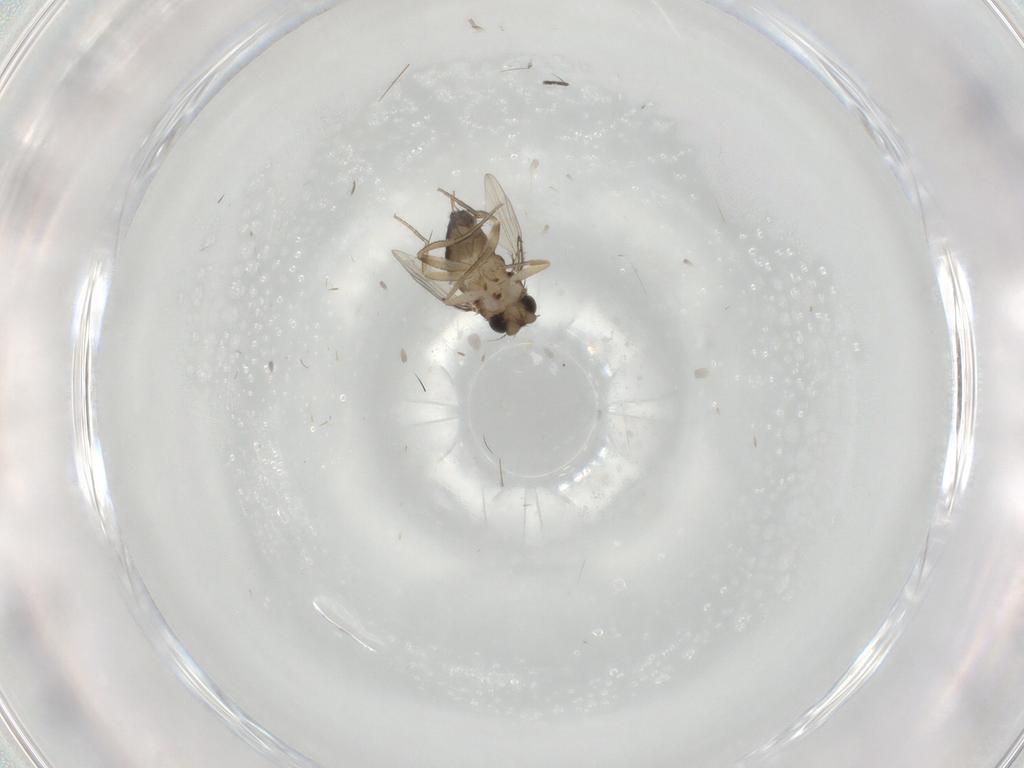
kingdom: Animalia
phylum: Arthropoda
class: Insecta
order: Diptera
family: Sciaridae
